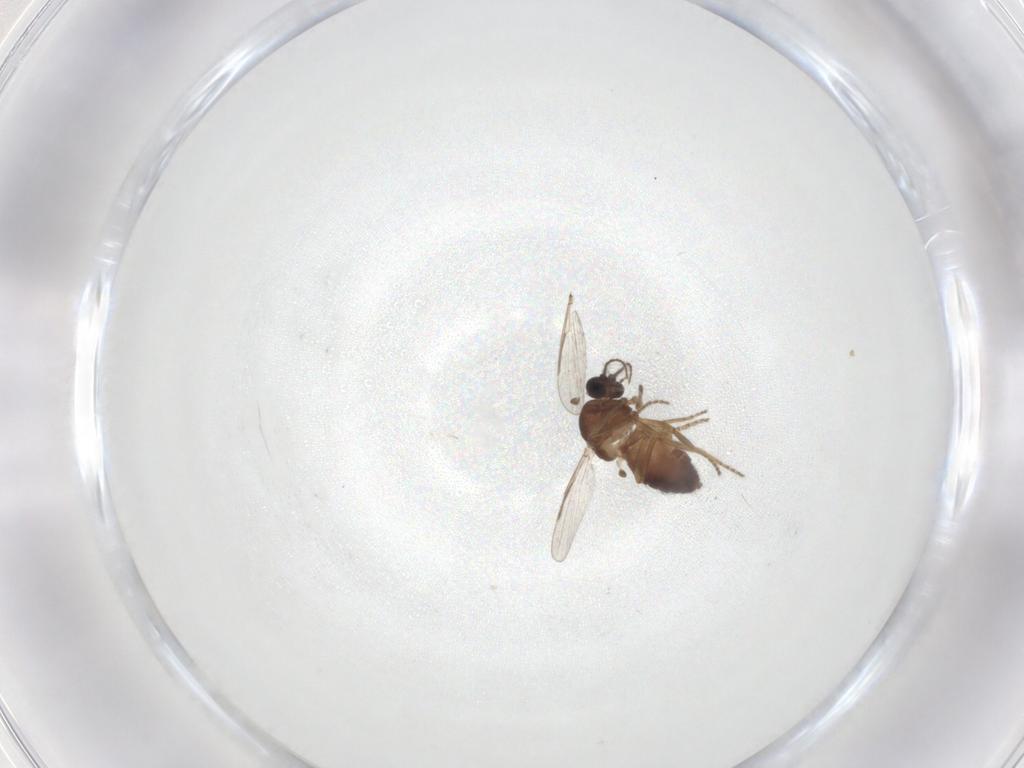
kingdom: Animalia
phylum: Arthropoda
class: Insecta
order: Diptera
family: Ceratopogonidae
